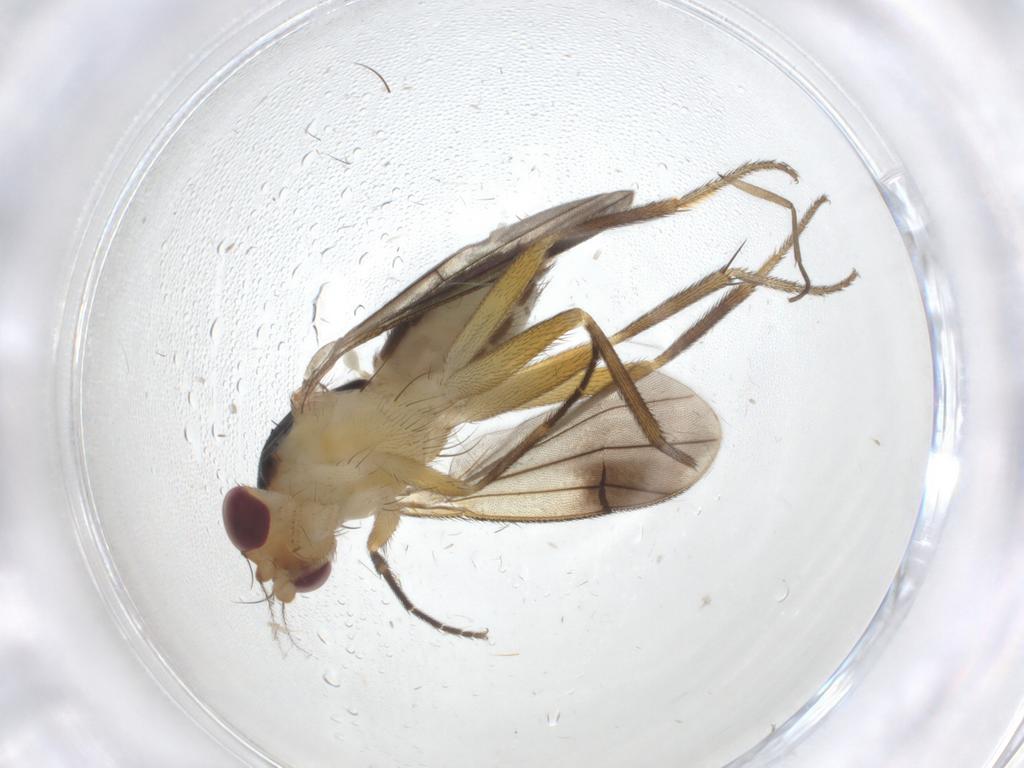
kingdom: Animalia
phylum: Arthropoda
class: Insecta
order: Diptera
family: Clusiidae
